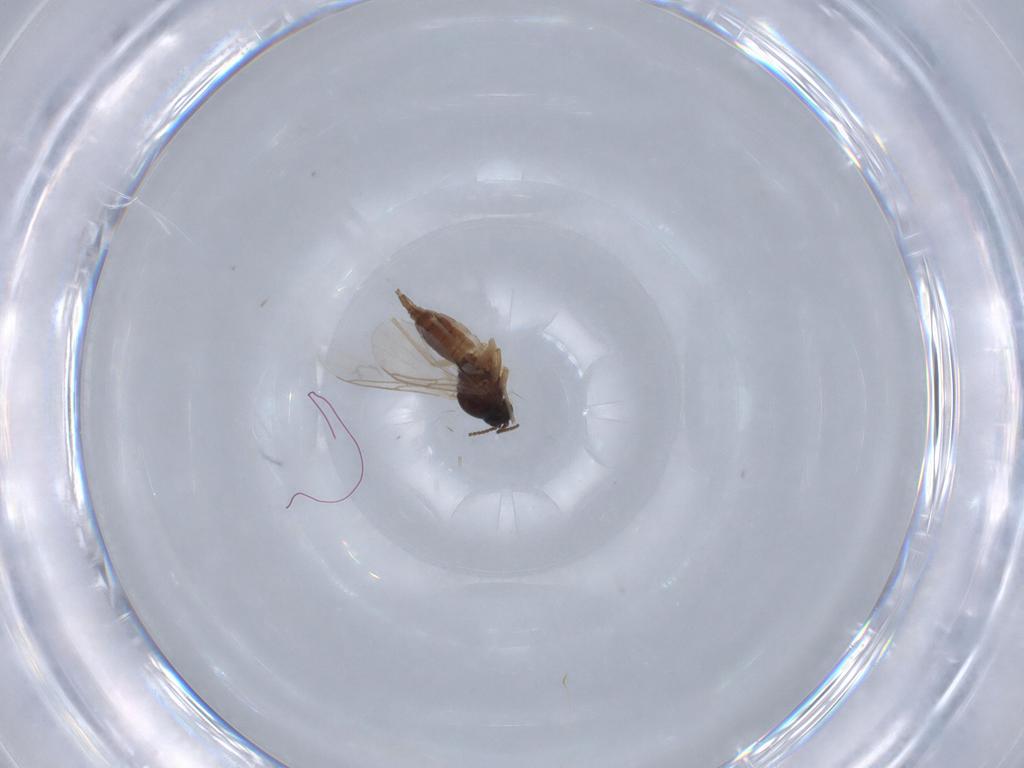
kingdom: Animalia
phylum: Arthropoda
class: Insecta
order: Diptera
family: Sciaridae
